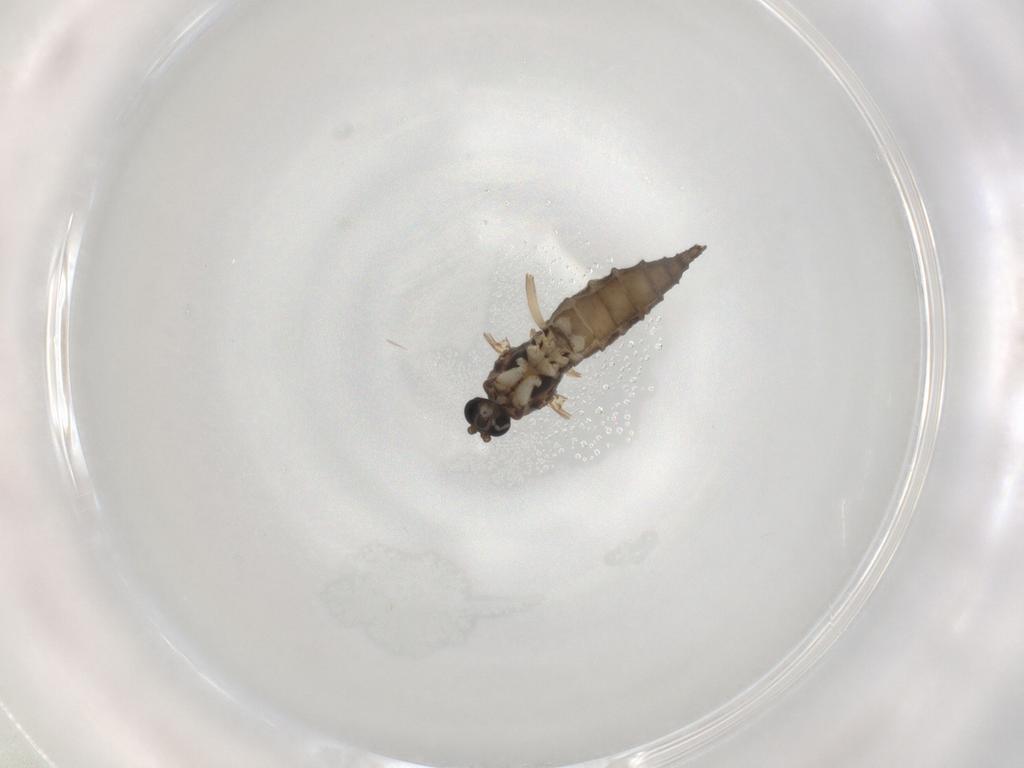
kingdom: Animalia
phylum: Arthropoda
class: Insecta
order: Diptera
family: Sciaridae
